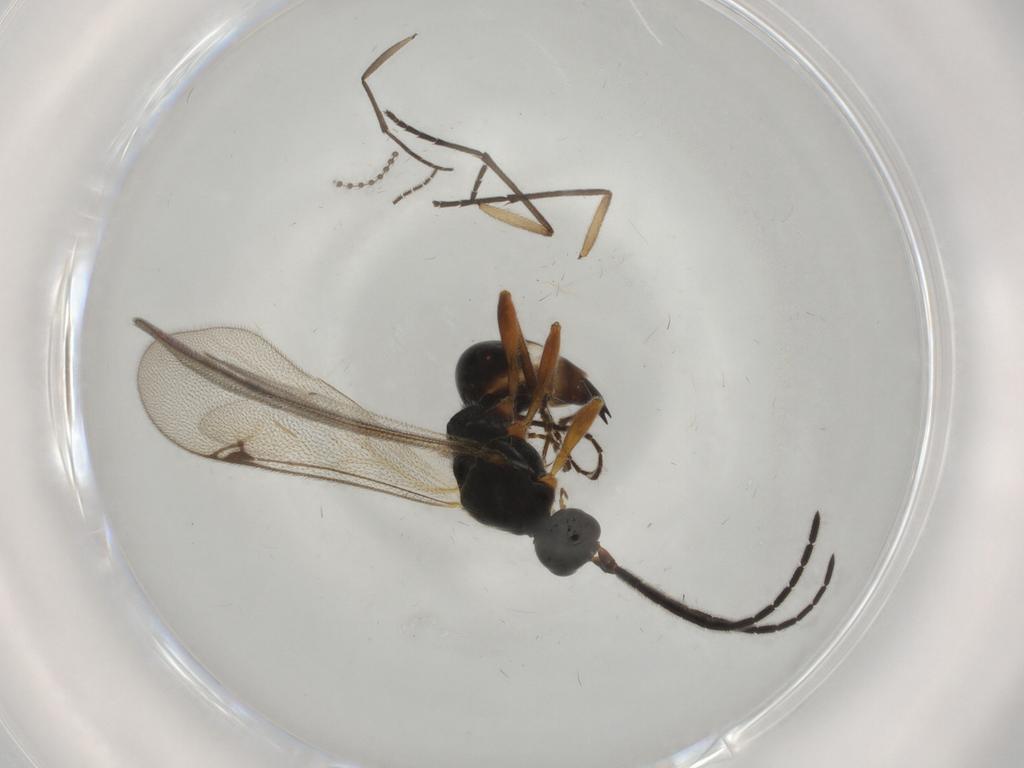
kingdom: Animalia
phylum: Arthropoda
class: Insecta
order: Hymenoptera
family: Proctotrupidae
